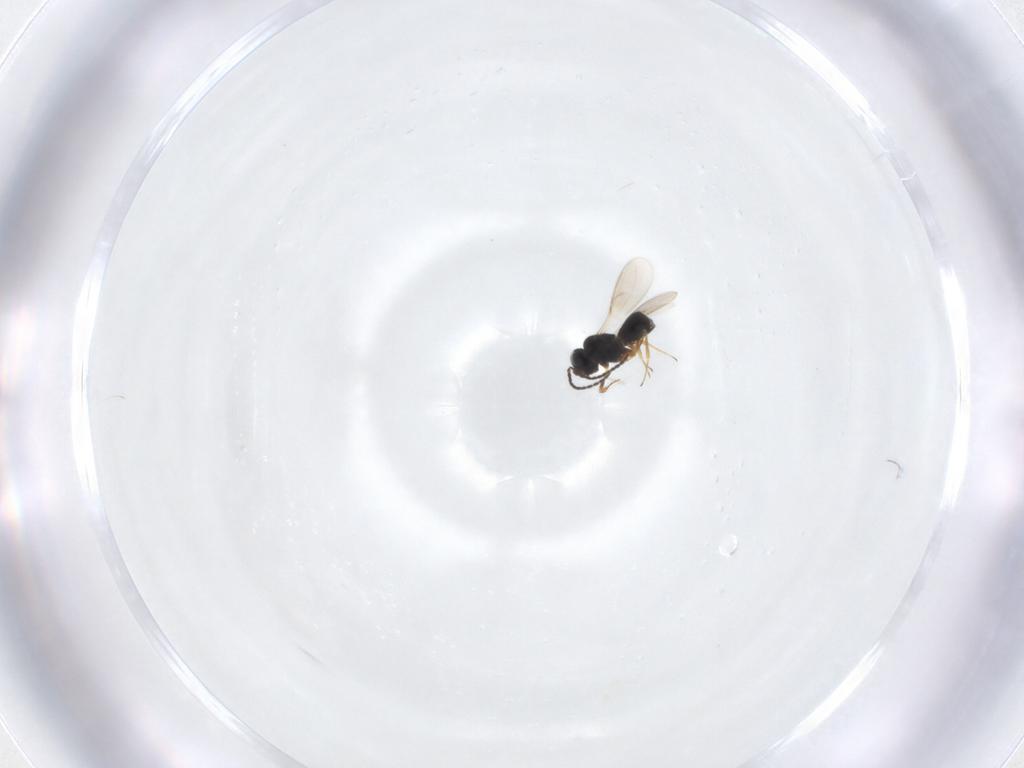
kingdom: Animalia
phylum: Arthropoda
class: Insecta
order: Hymenoptera
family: Scelionidae
